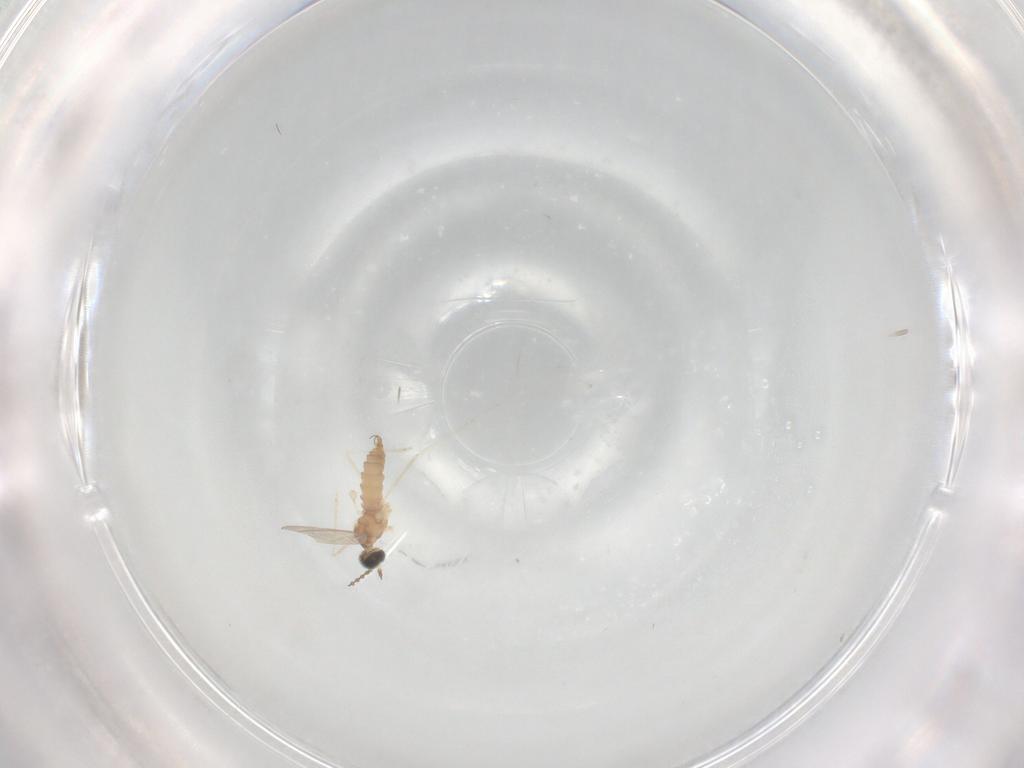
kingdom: Animalia
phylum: Arthropoda
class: Insecta
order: Diptera
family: Cecidomyiidae
